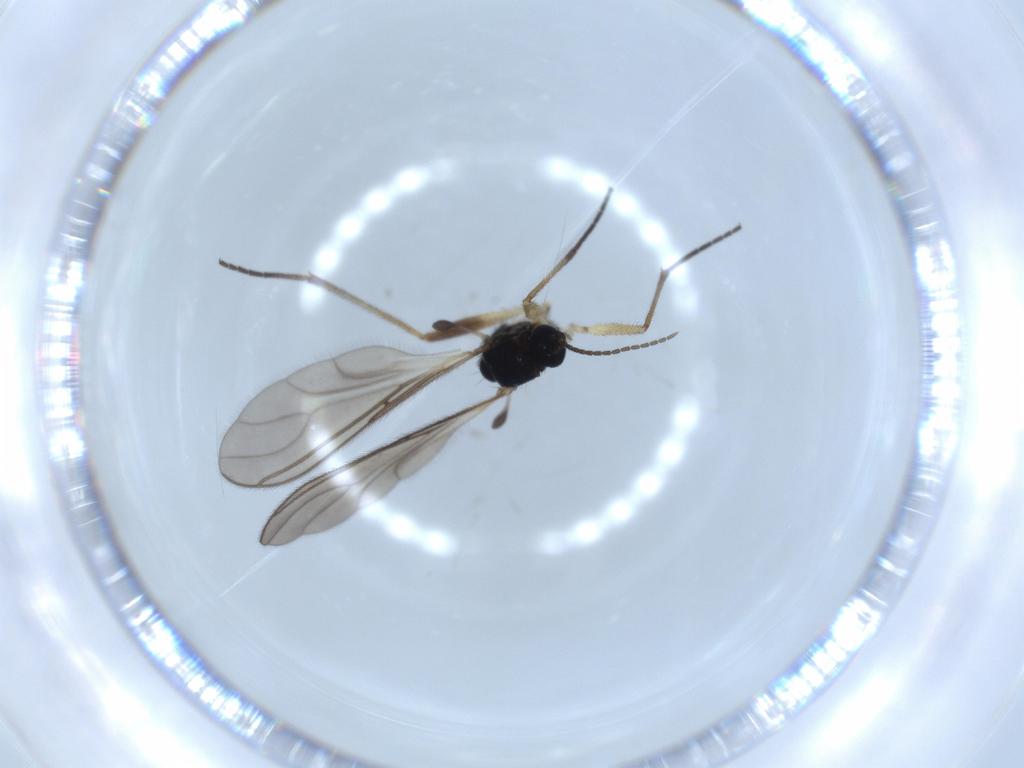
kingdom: Animalia
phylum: Arthropoda
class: Insecta
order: Diptera
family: Sciaridae
